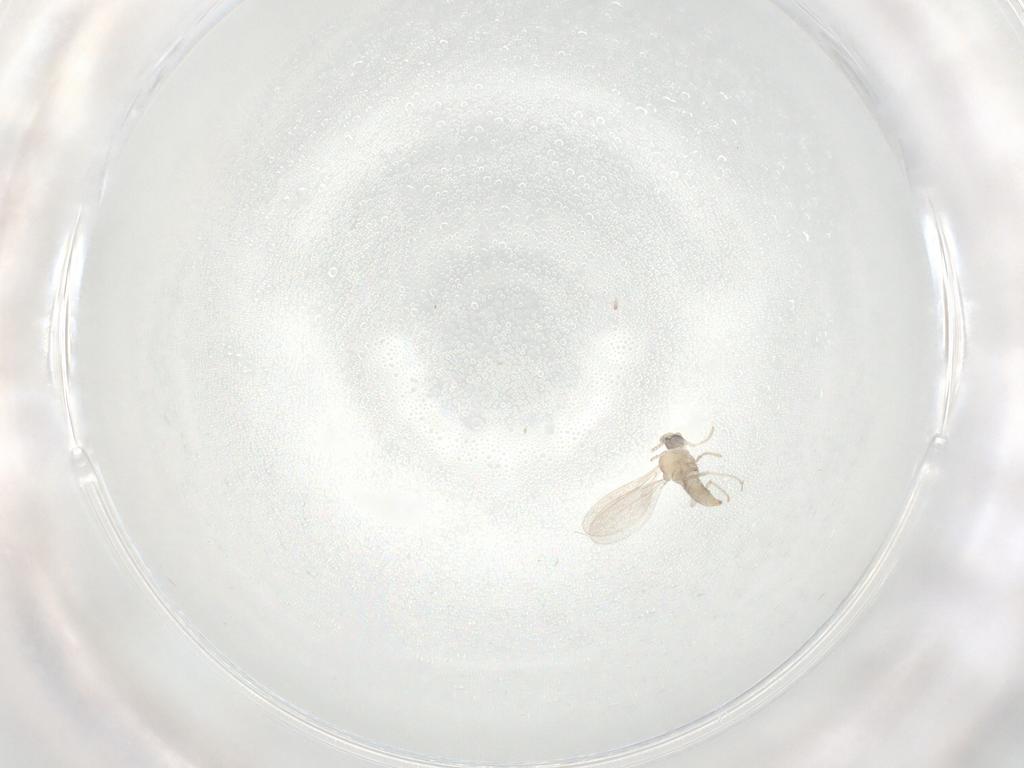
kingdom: Animalia
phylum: Arthropoda
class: Insecta
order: Diptera
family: Cecidomyiidae
